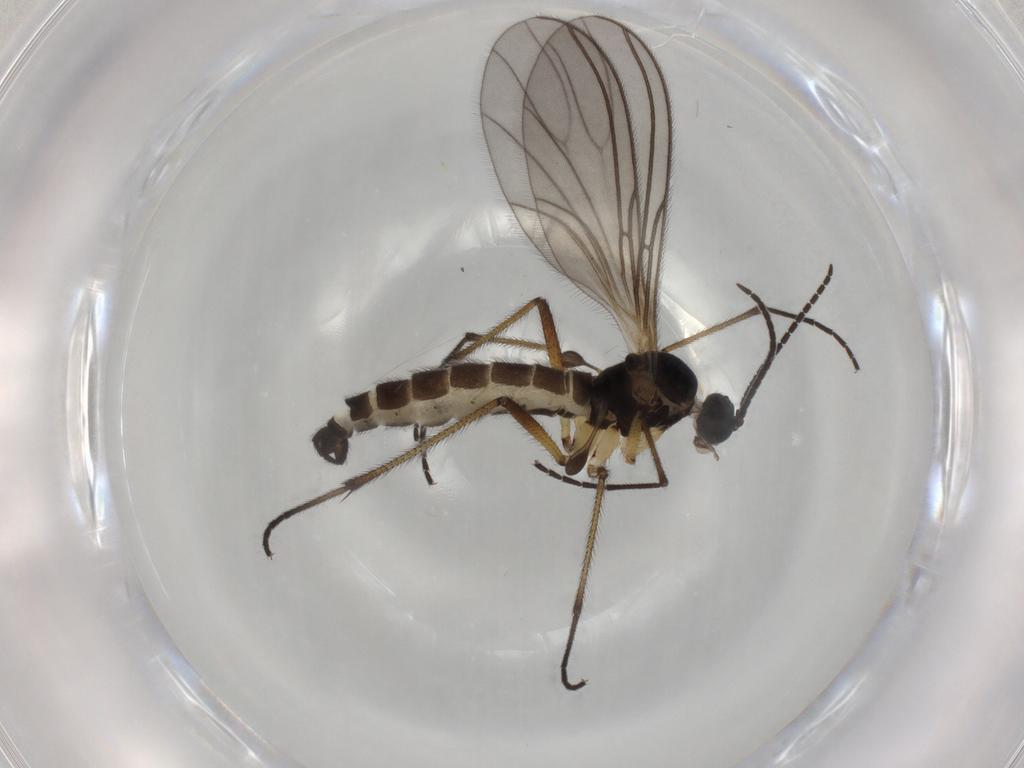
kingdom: Animalia
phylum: Arthropoda
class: Insecta
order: Diptera
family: Sciaridae
